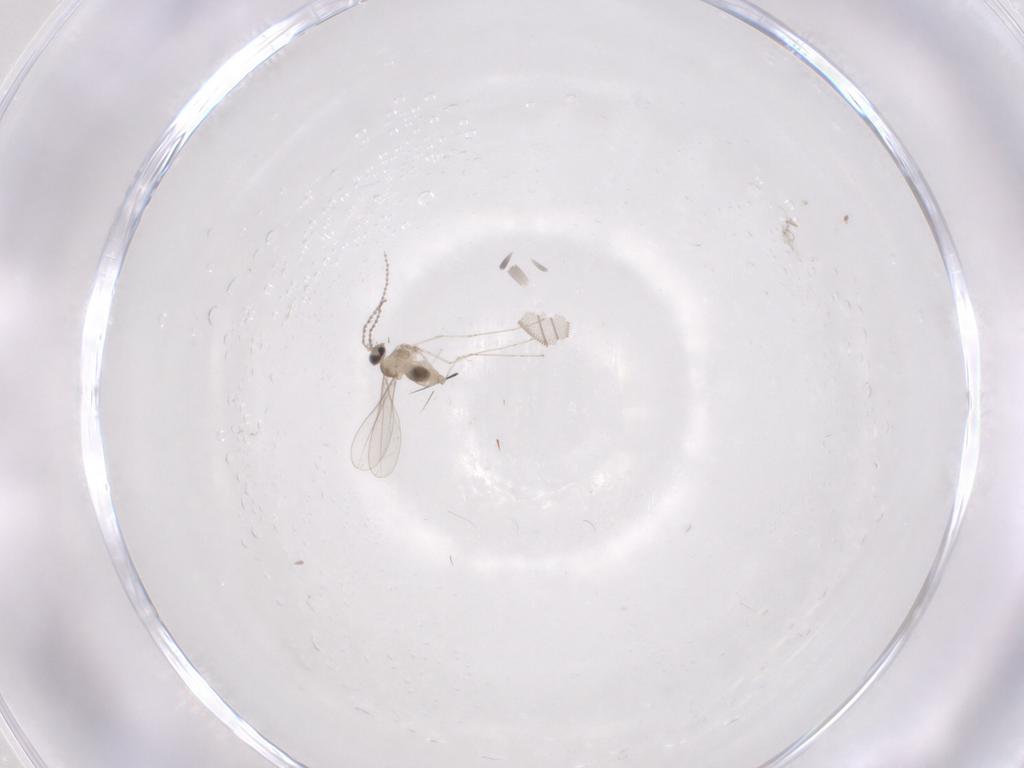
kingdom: Animalia
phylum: Arthropoda
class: Insecta
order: Diptera
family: Cecidomyiidae
